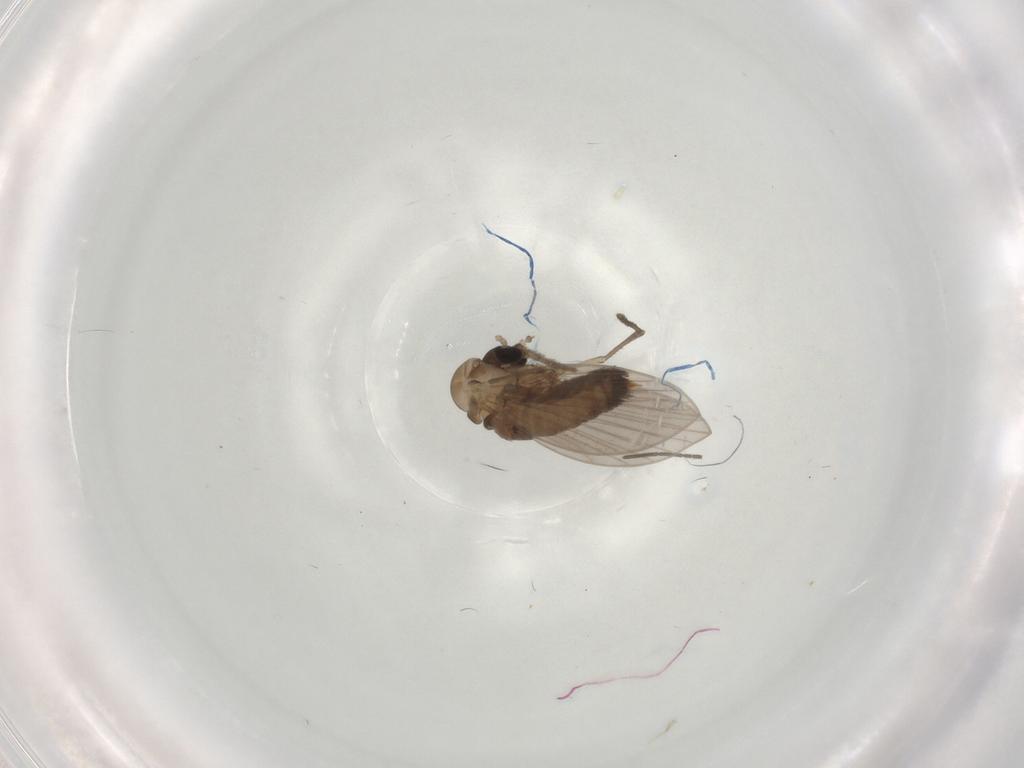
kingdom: Animalia
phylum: Arthropoda
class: Insecta
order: Diptera
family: Psychodidae
